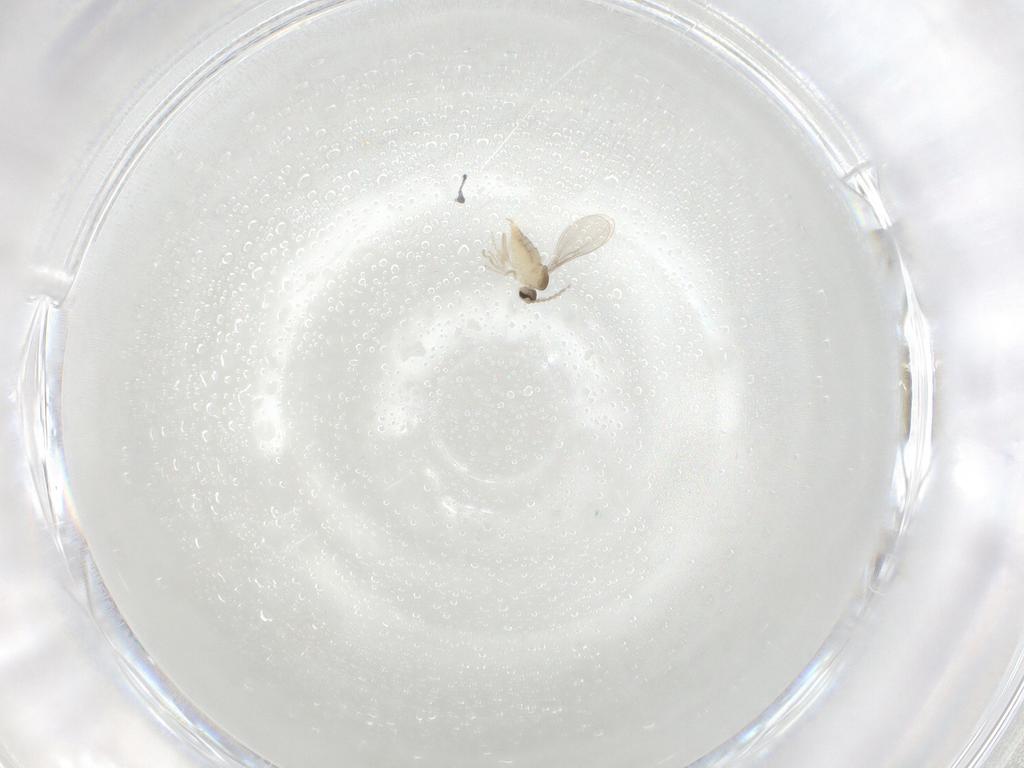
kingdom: Animalia
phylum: Arthropoda
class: Insecta
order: Diptera
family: Cecidomyiidae
